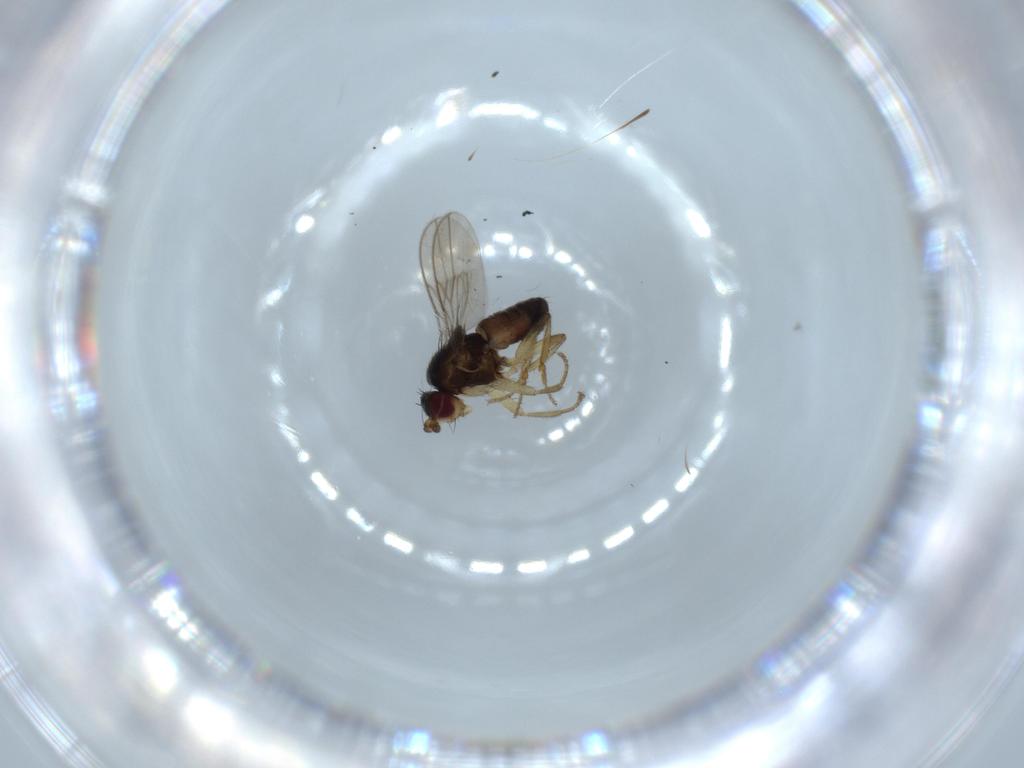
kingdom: Animalia
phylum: Arthropoda
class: Insecta
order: Diptera
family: Sphaeroceridae
